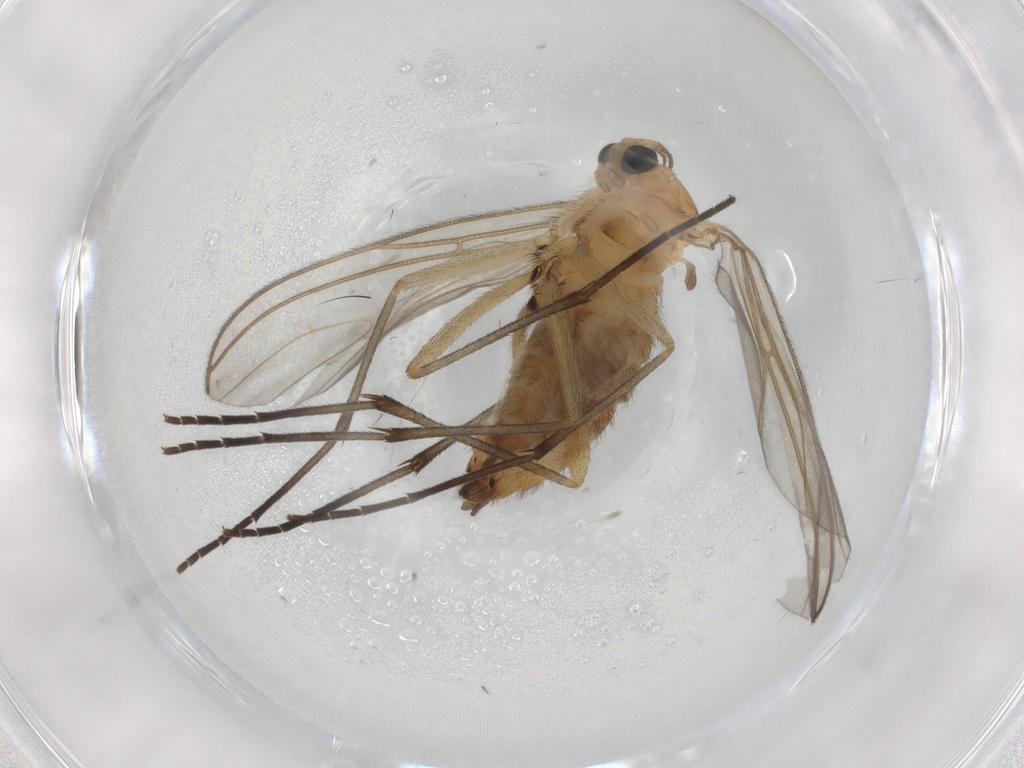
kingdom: Animalia
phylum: Arthropoda
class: Insecta
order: Diptera
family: Sciaridae
